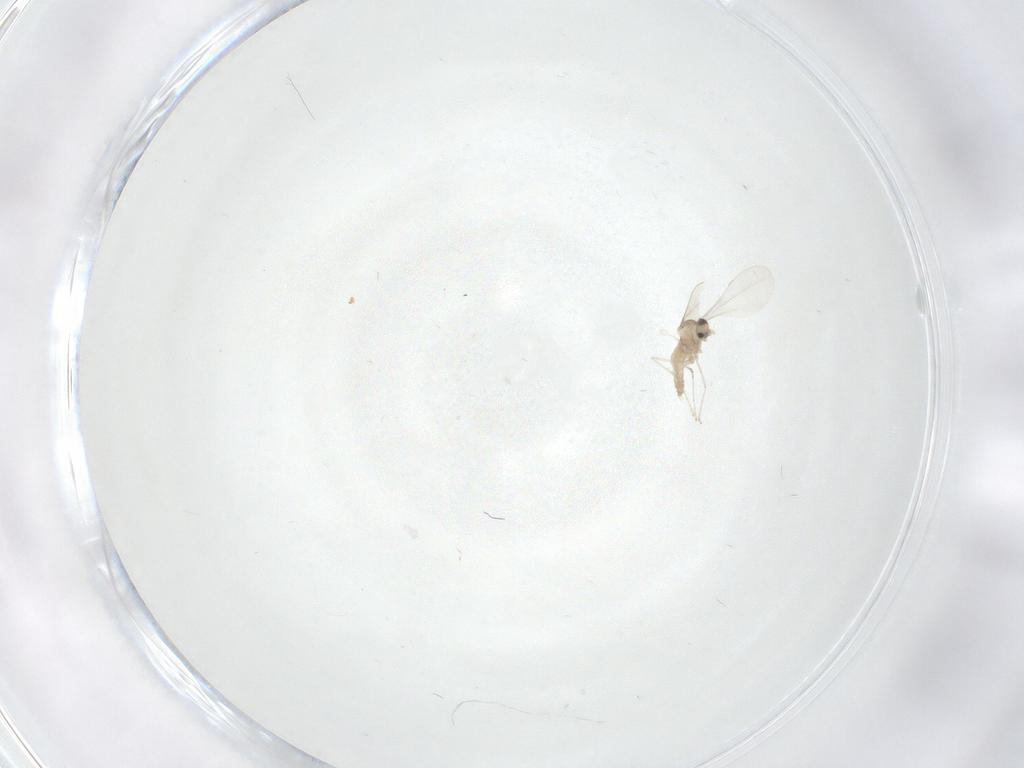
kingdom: Animalia
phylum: Arthropoda
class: Insecta
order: Diptera
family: Cecidomyiidae
